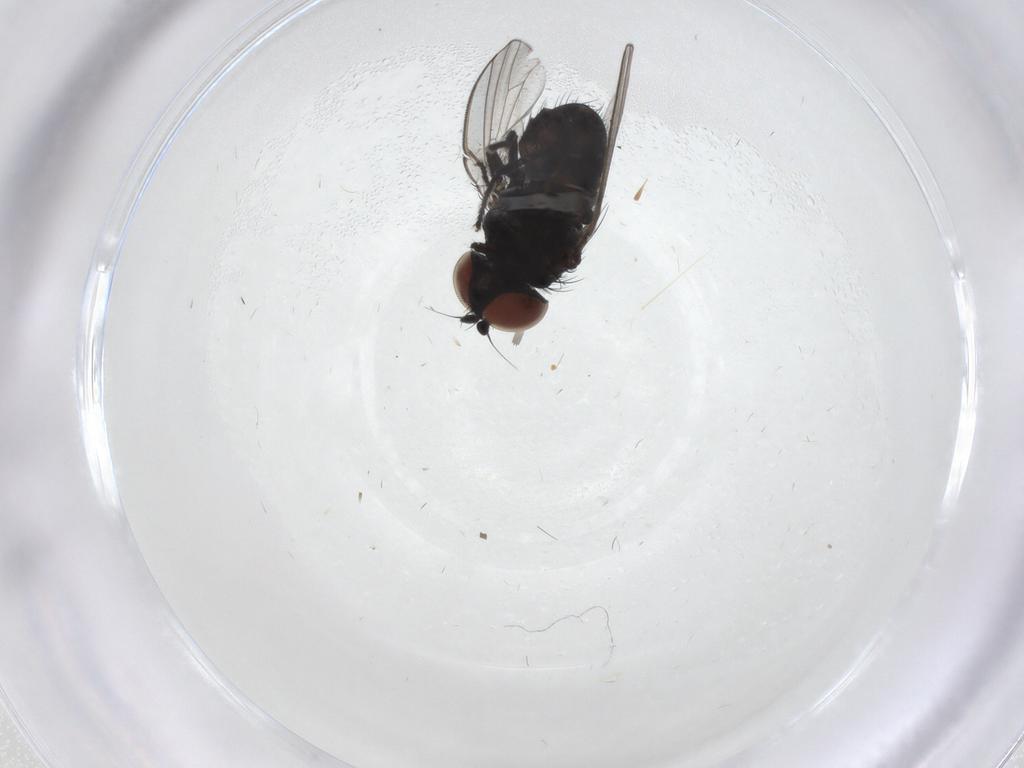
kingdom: Animalia
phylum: Arthropoda
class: Insecta
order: Diptera
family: Milichiidae
